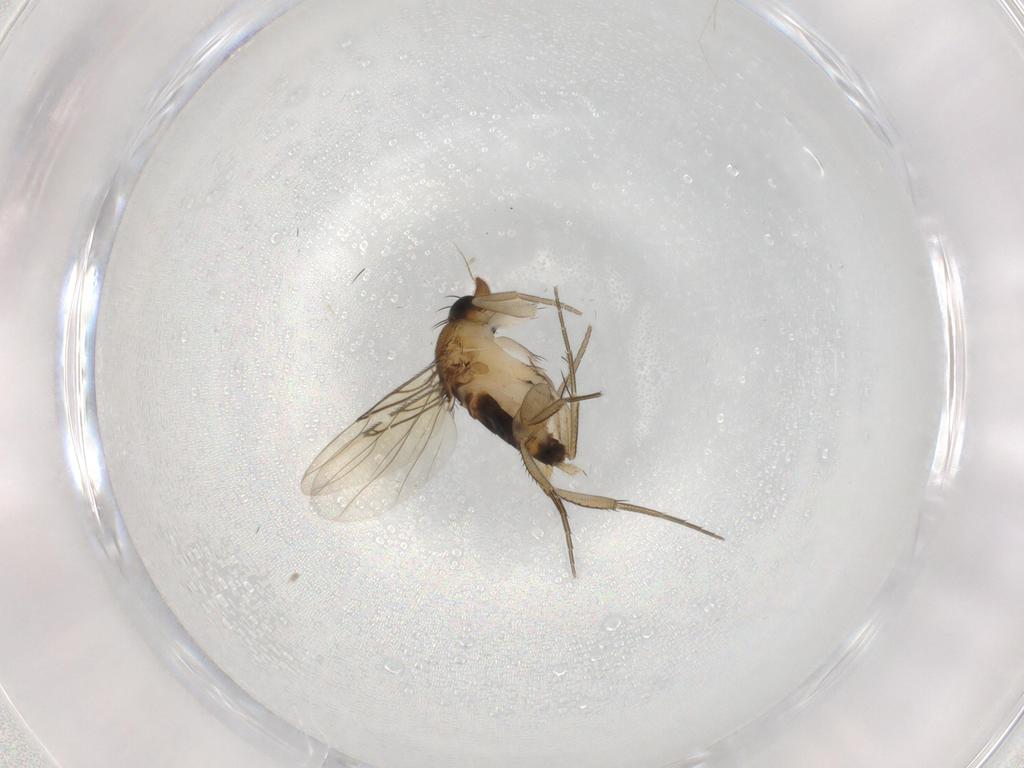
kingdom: Animalia
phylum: Arthropoda
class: Insecta
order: Diptera
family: Phoridae
